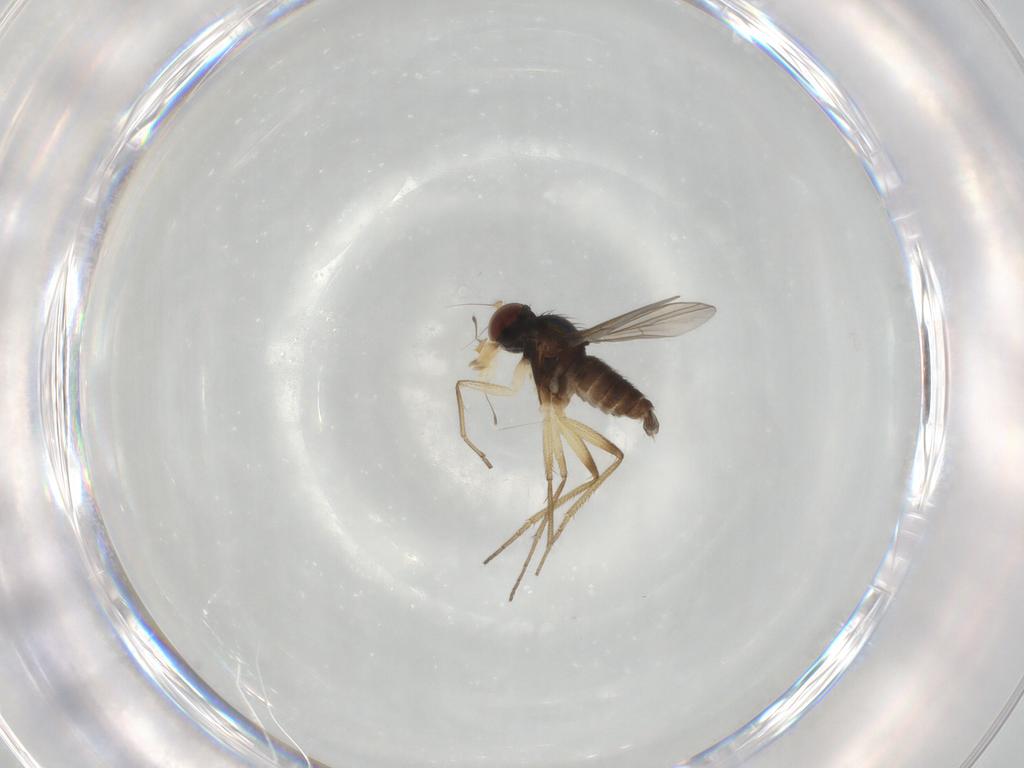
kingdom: Animalia
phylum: Arthropoda
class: Insecta
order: Diptera
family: Dolichopodidae
